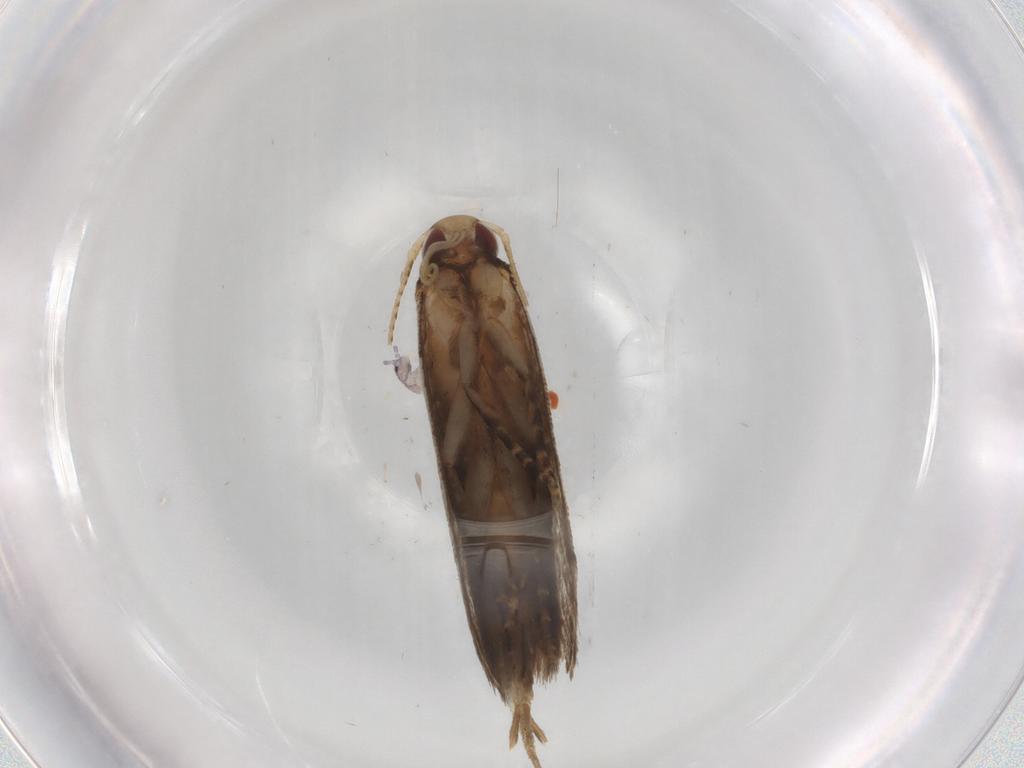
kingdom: Animalia
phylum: Arthropoda
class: Insecta
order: Lepidoptera
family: Gelechiidae
